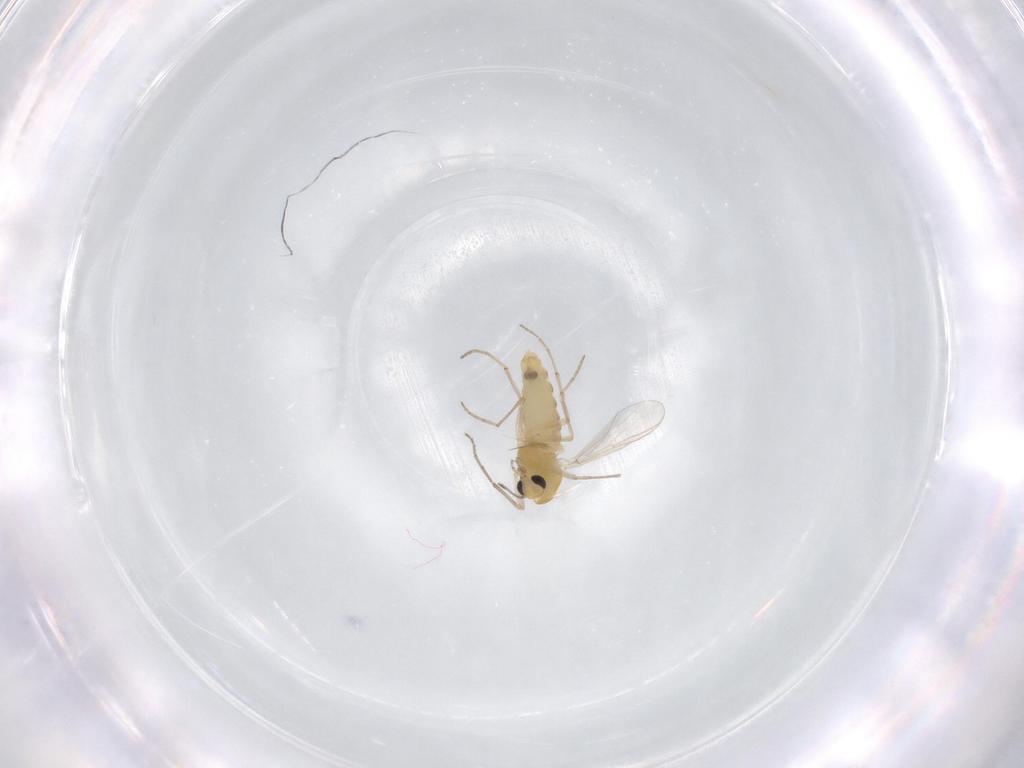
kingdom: Animalia
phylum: Arthropoda
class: Insecta
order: Diptera
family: Chironomidae
